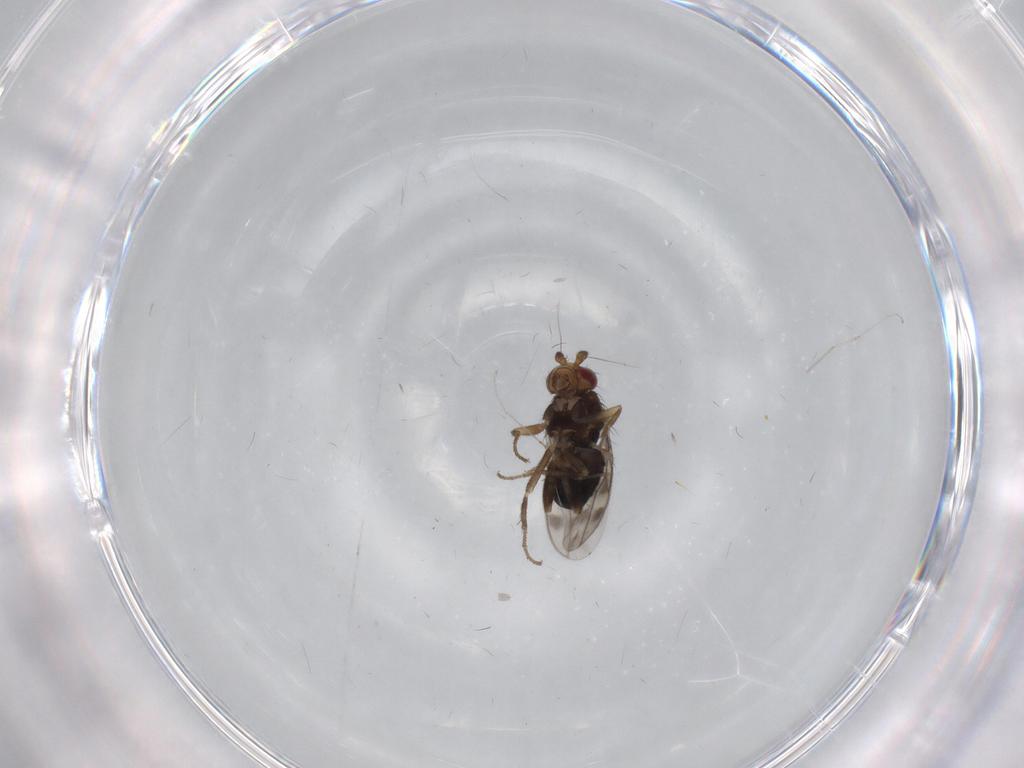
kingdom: Animalia
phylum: Arthropoda
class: Insecta
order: Diptera
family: Sphaeroceridae
